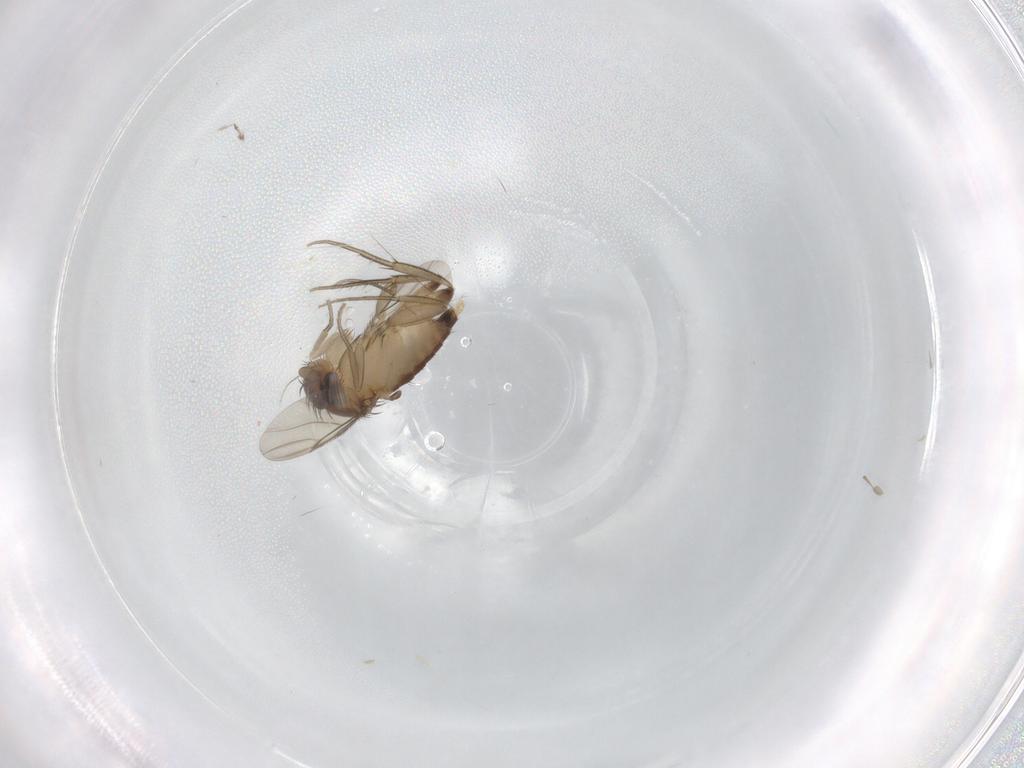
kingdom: Animalia
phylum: Arthropoda
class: Insecta
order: Diptera
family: Phoridae
